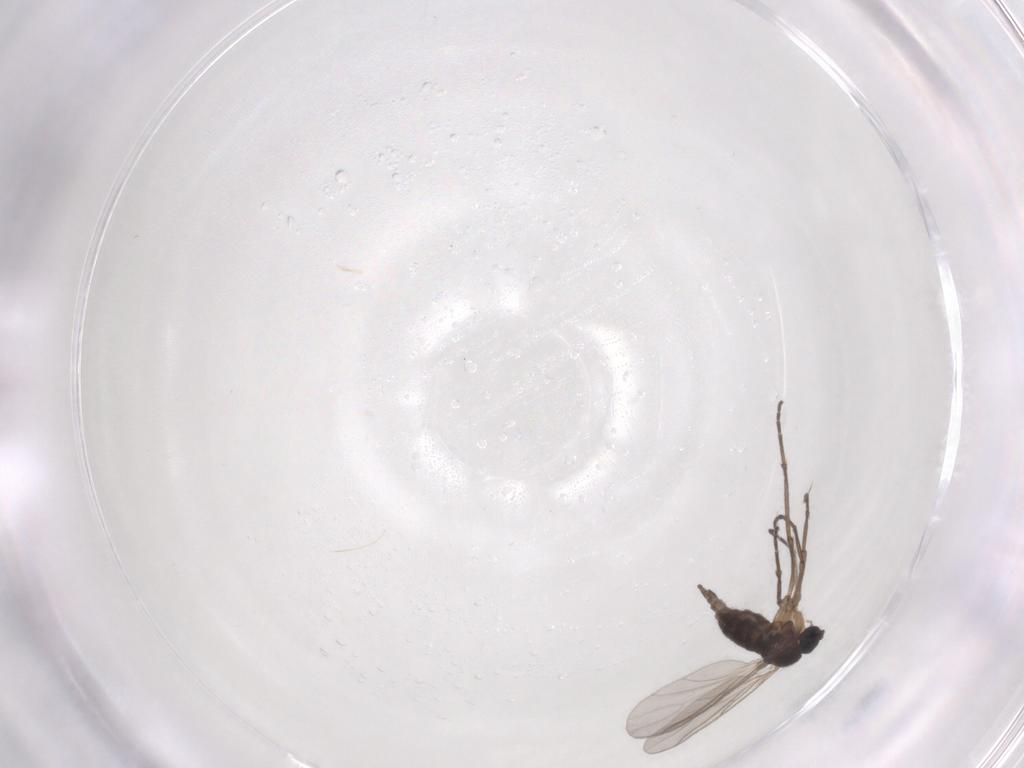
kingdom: Animalia
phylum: Arthropoda
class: Insecta
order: Diptera
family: Sciaridae
